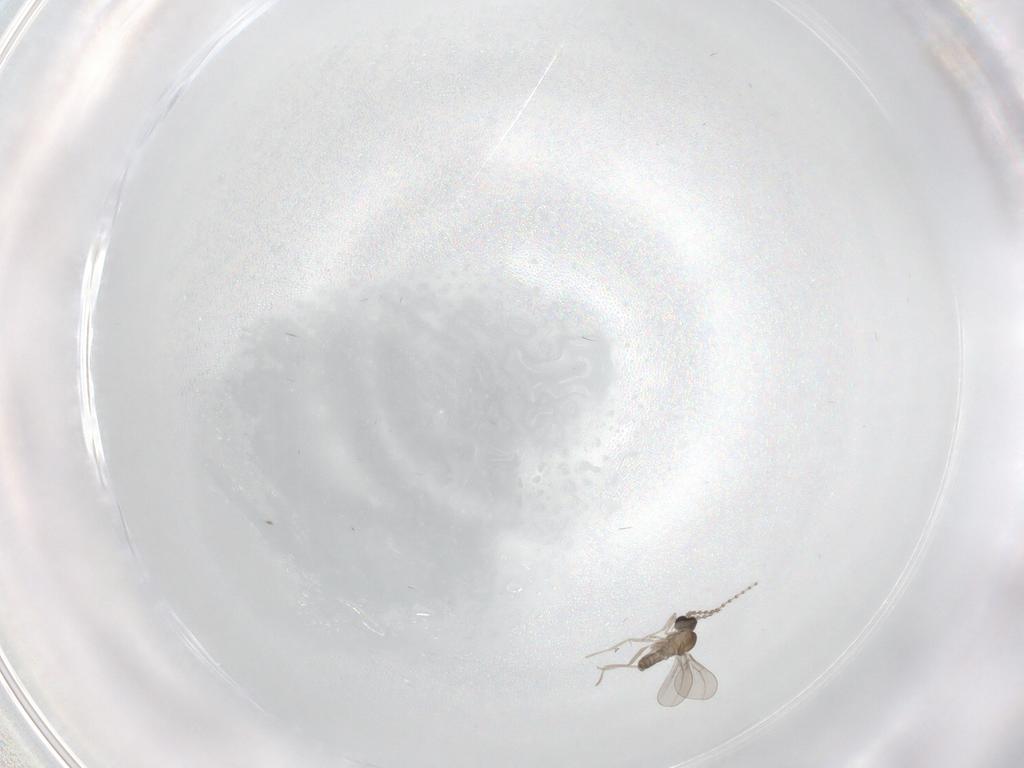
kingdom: Animalia
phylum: Arthropoda
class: Insecta
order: Diptera
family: Cecidomyiidae
